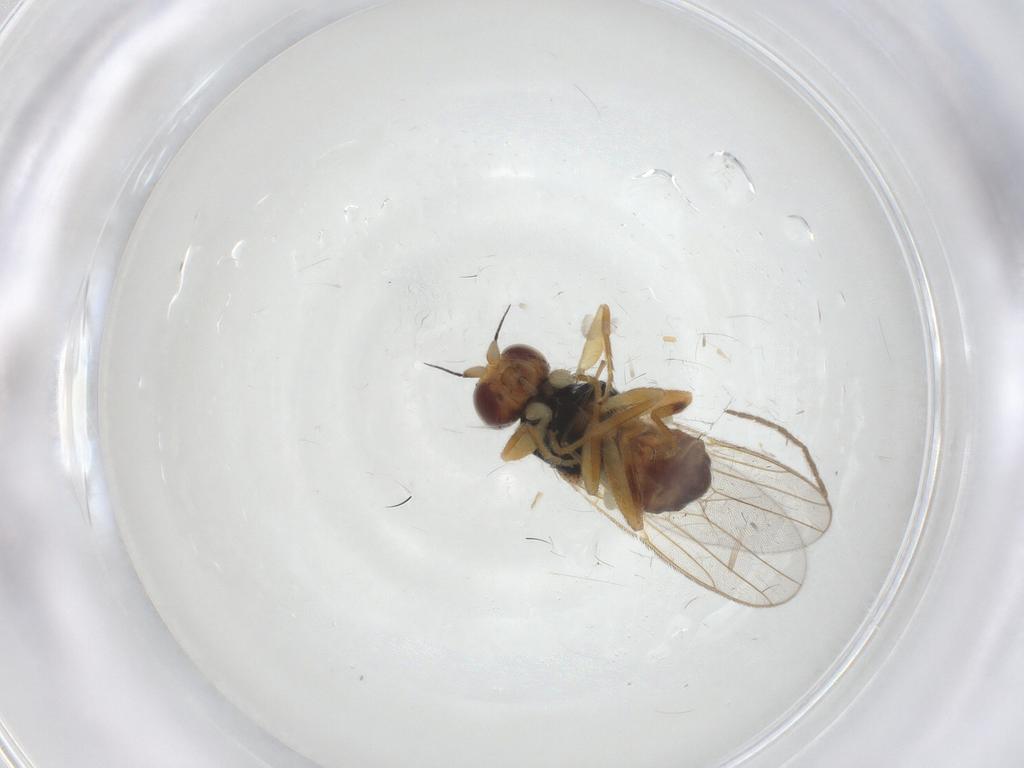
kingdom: Animalia
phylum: Arthropoda
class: Insecta
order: Diptera
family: Chloropidae
